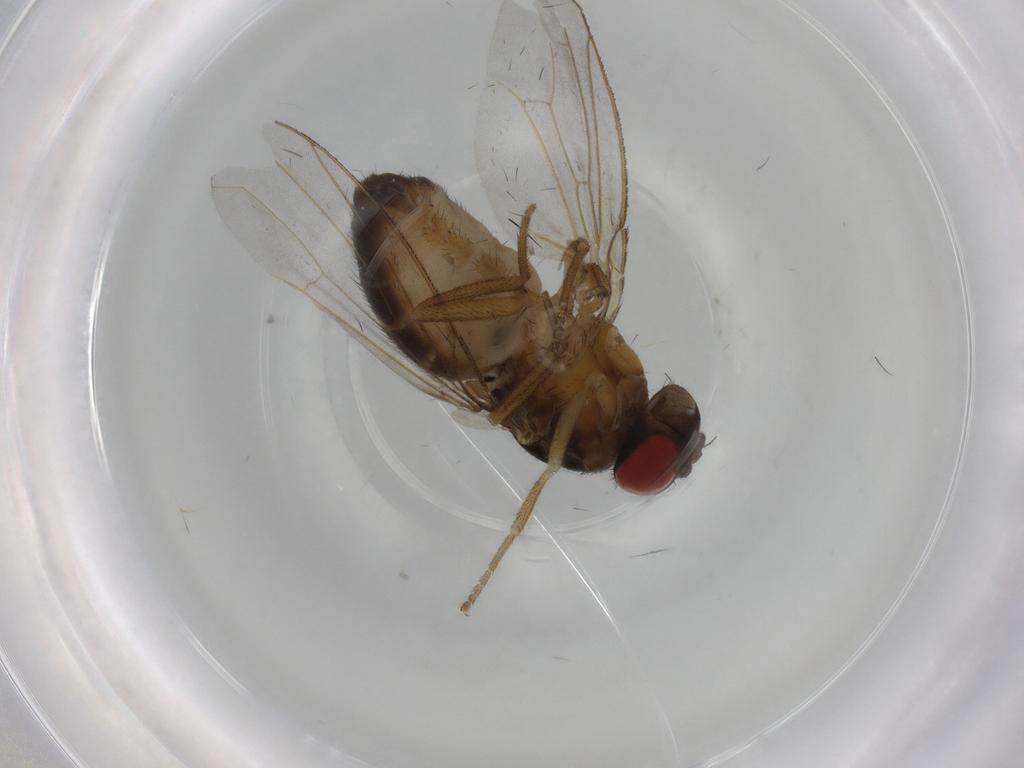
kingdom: Animalia
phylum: Arthropoda
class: Insecta
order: Diptera
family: Drosophilidae
